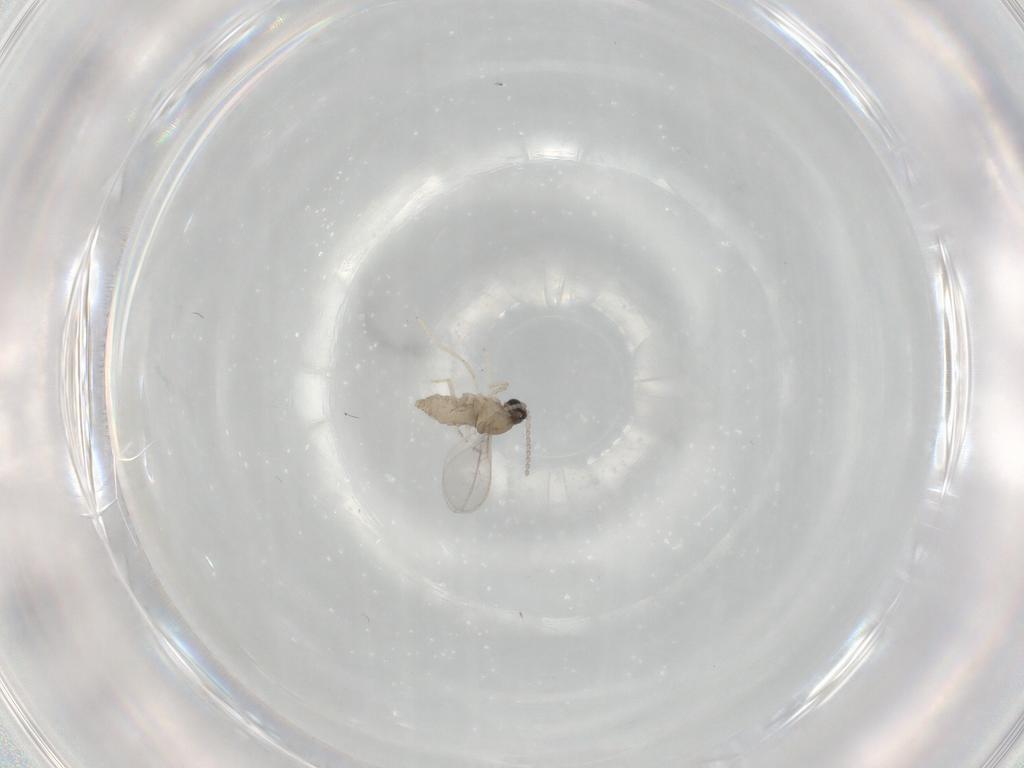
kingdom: Animalia
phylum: Arthropoda
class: Insecta
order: Diptera
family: Cecidomyiidae
